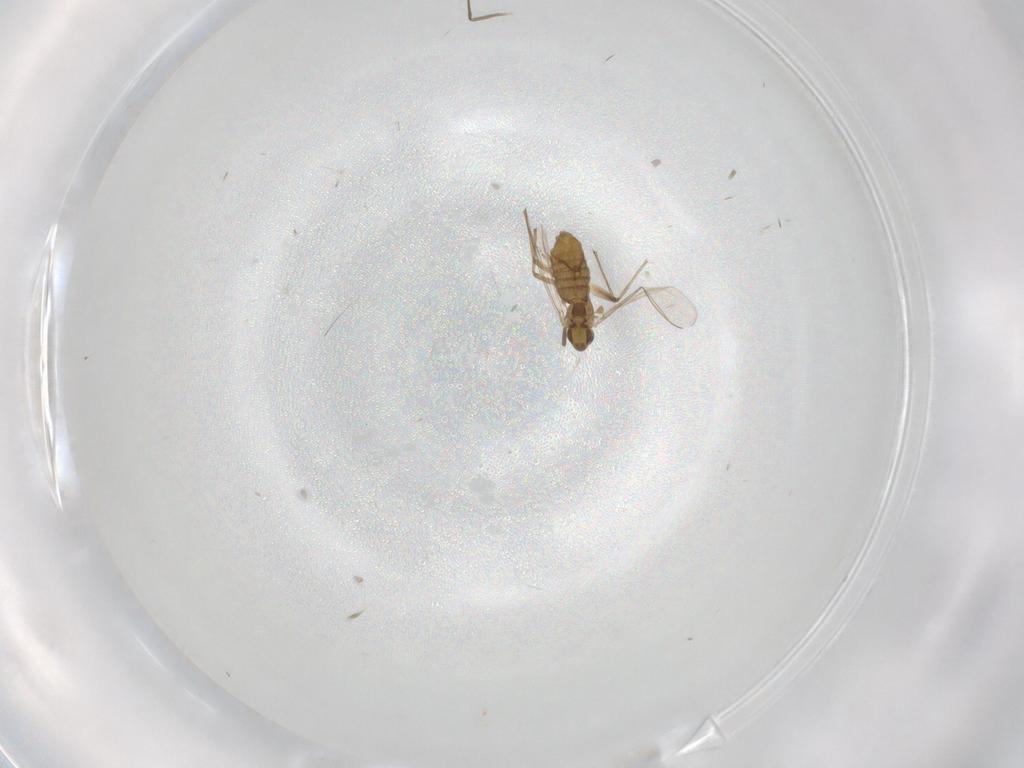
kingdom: Animalia
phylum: Arthropoda
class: Insecta
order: Diptera
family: Chironomidae
